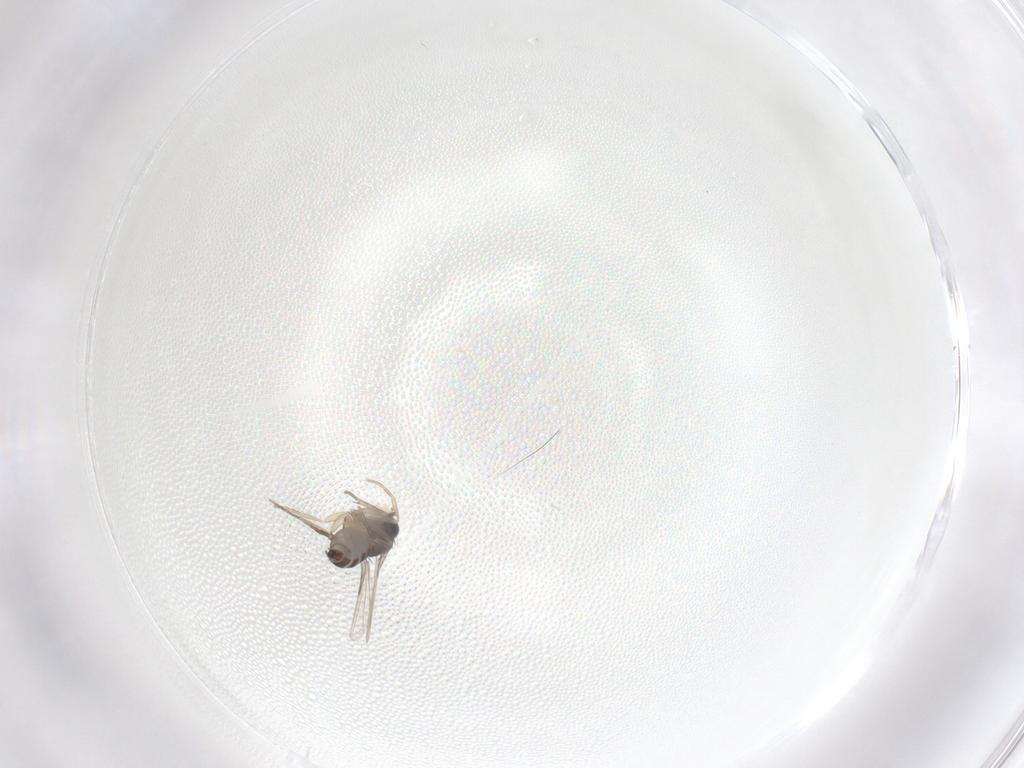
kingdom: Animalia
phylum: Arthropoda
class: Insecta
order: Diptera
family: Phoridae
